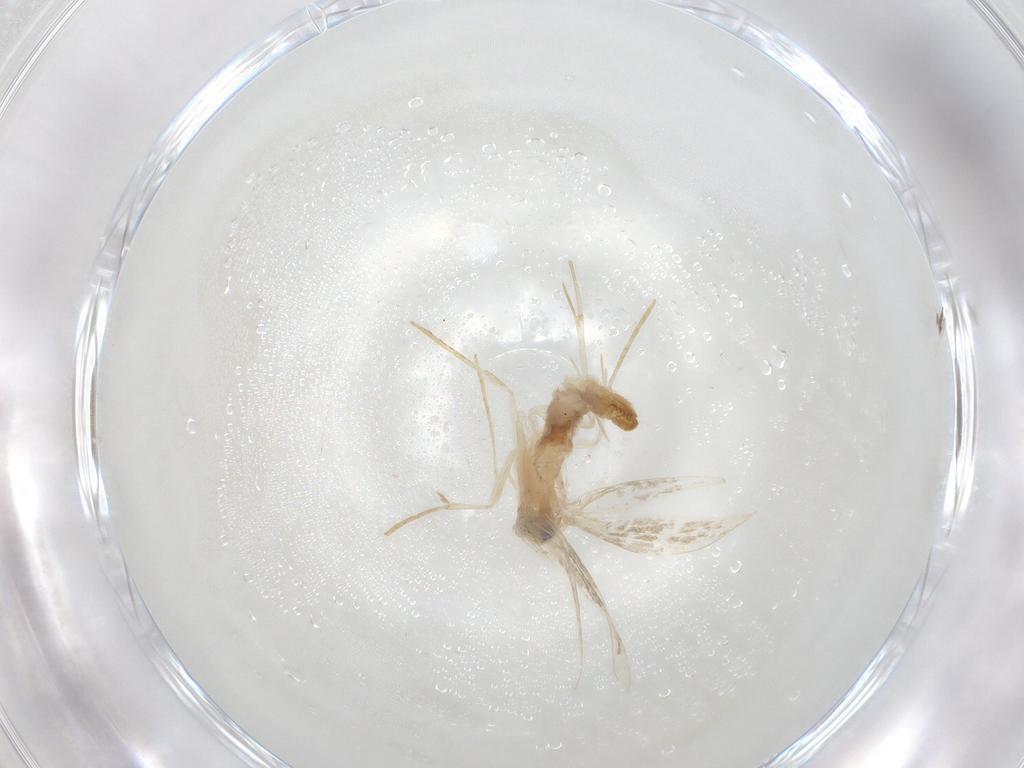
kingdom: Animalia
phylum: Arthropoda
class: Insecta
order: Lepidoptera
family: Tineidae
